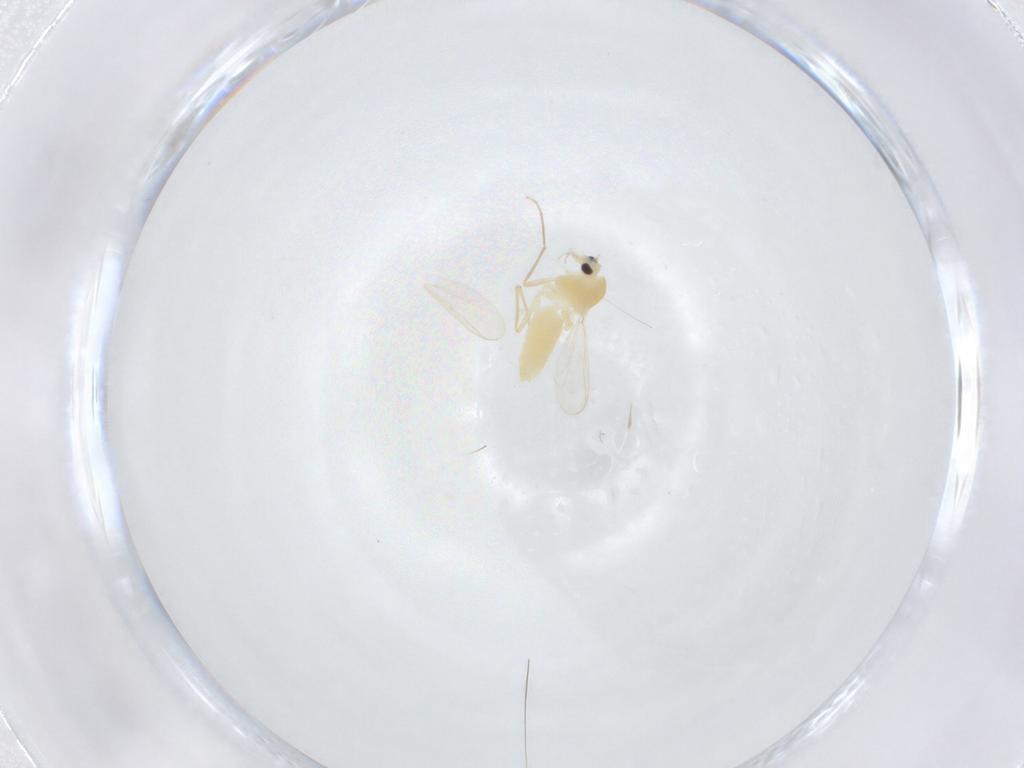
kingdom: Animalia
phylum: Arthropoda
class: Insecta
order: Diptera
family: Chironomidae
